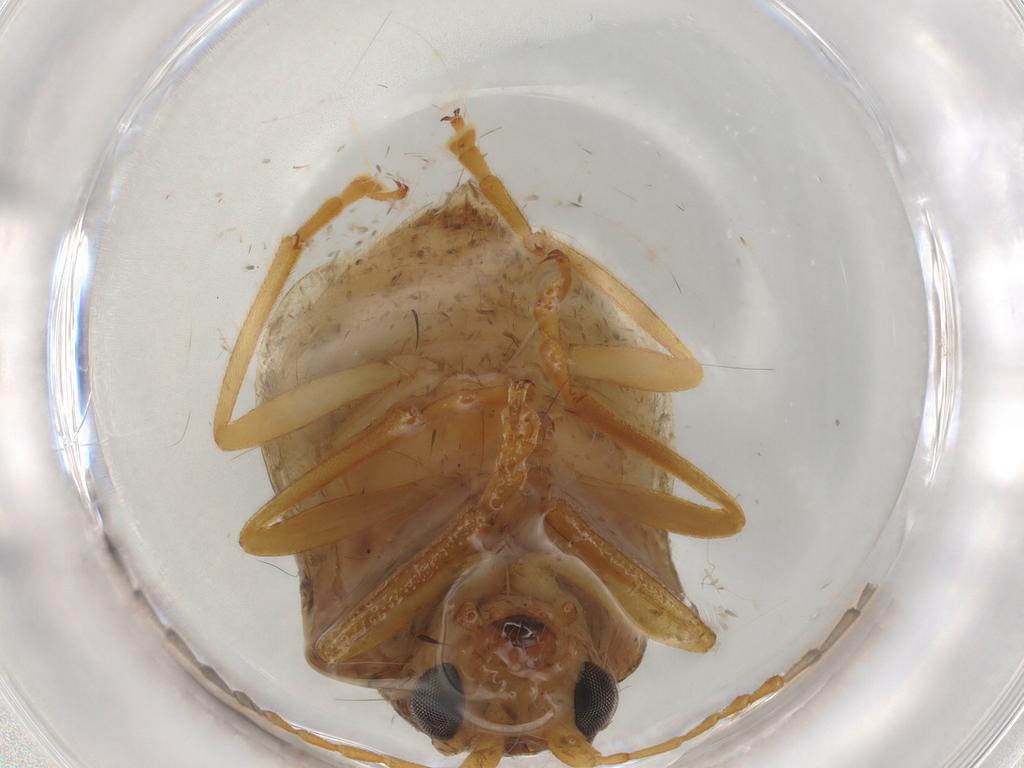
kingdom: Animalia
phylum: Arthropoda
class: Insecta
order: Coleoptera
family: Chrysomelidae
